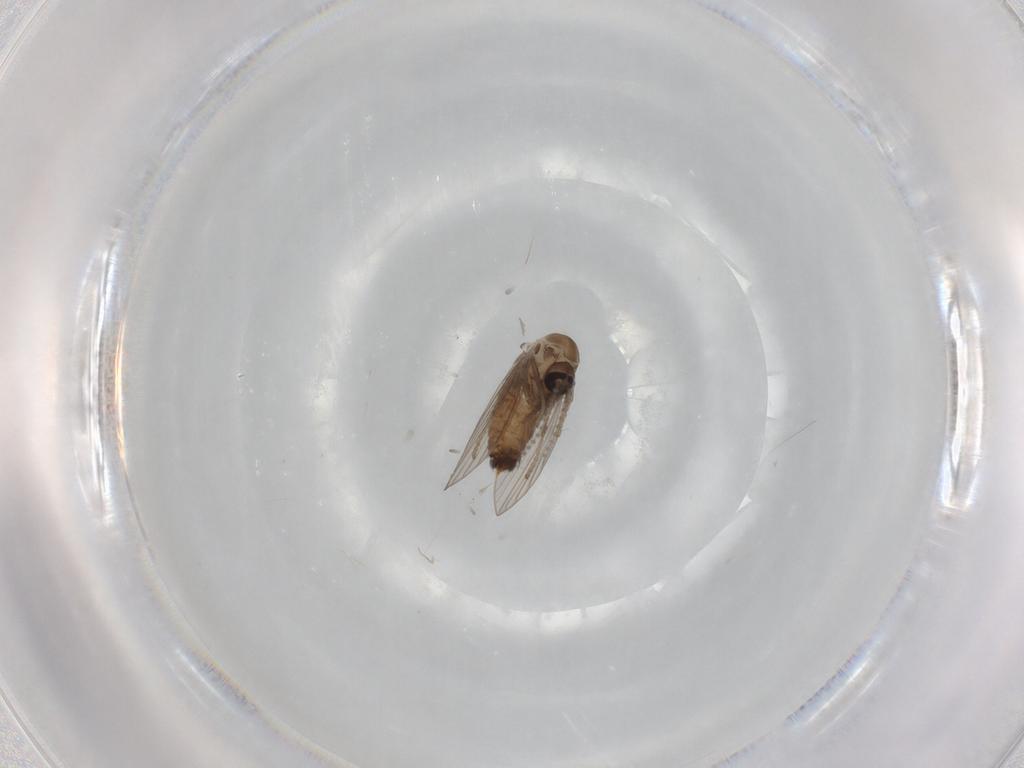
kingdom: Animalia
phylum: Arthropoda
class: Insecta
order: Diptera
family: Psychodidae
